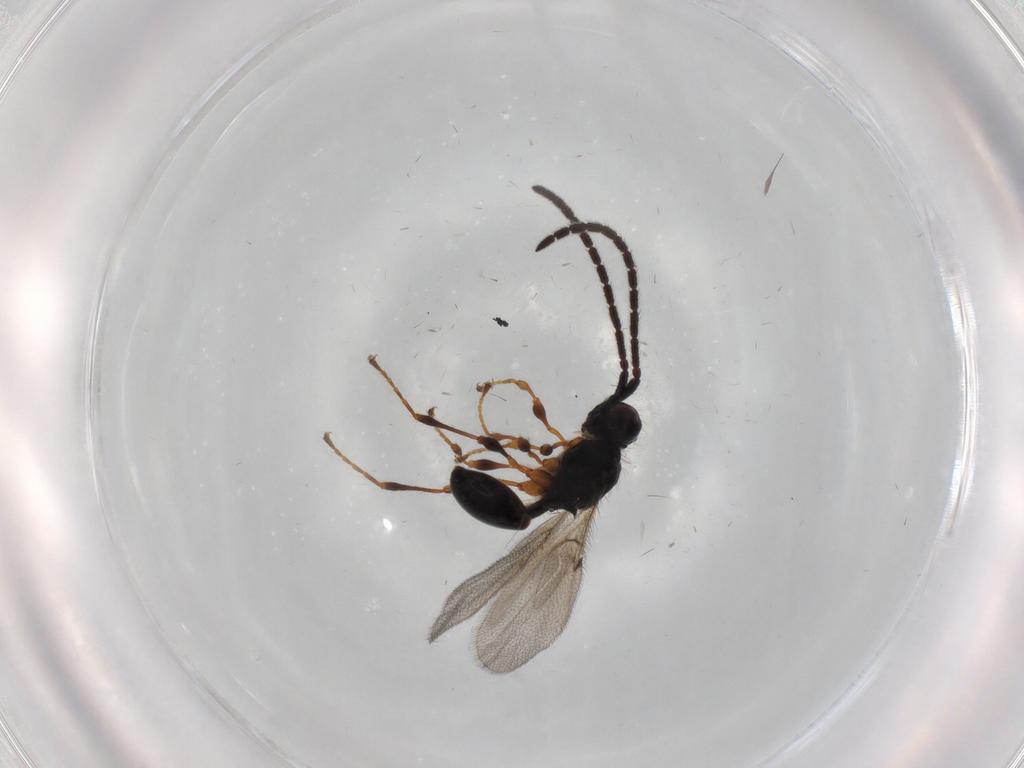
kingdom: Animalia
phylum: Arthropoda
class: Insecta
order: Hymenoptera
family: Diapriidae
